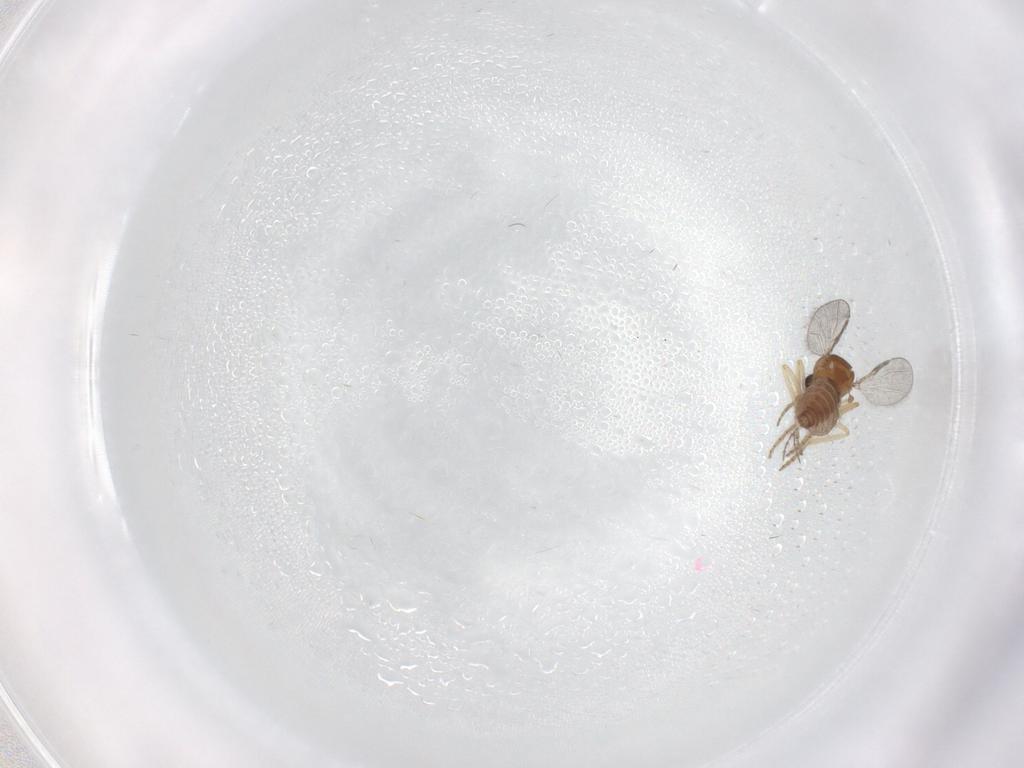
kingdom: Animalia
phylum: Arthropoda
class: Insecta
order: Diptera
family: Ceratopogonidae
